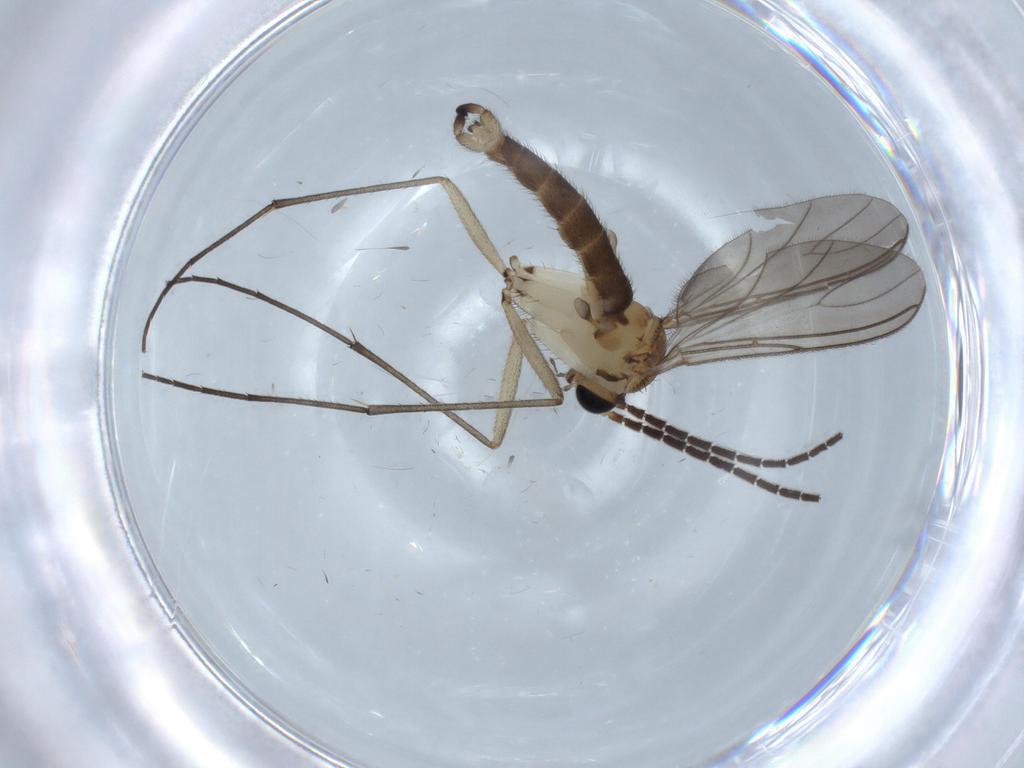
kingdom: Animalia
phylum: Arthropoda
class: Insecta
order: Diptera
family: Sciaridae
